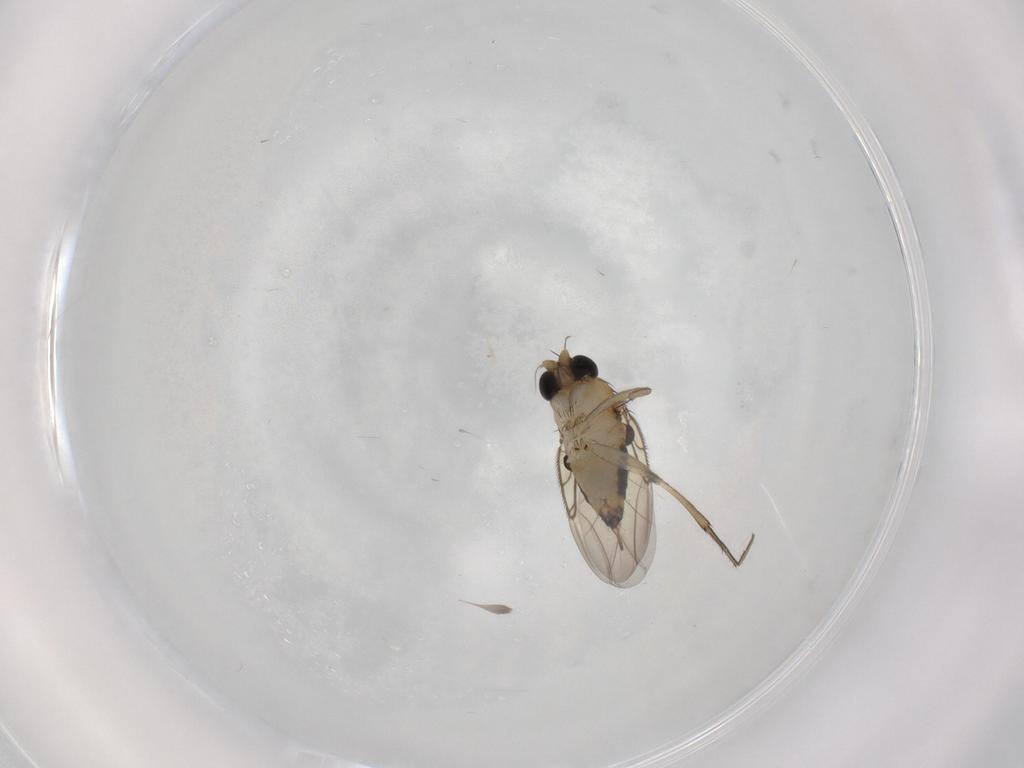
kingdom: Animalia
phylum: Arthropoda
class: Insecta
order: Diptera
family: Phoridae
